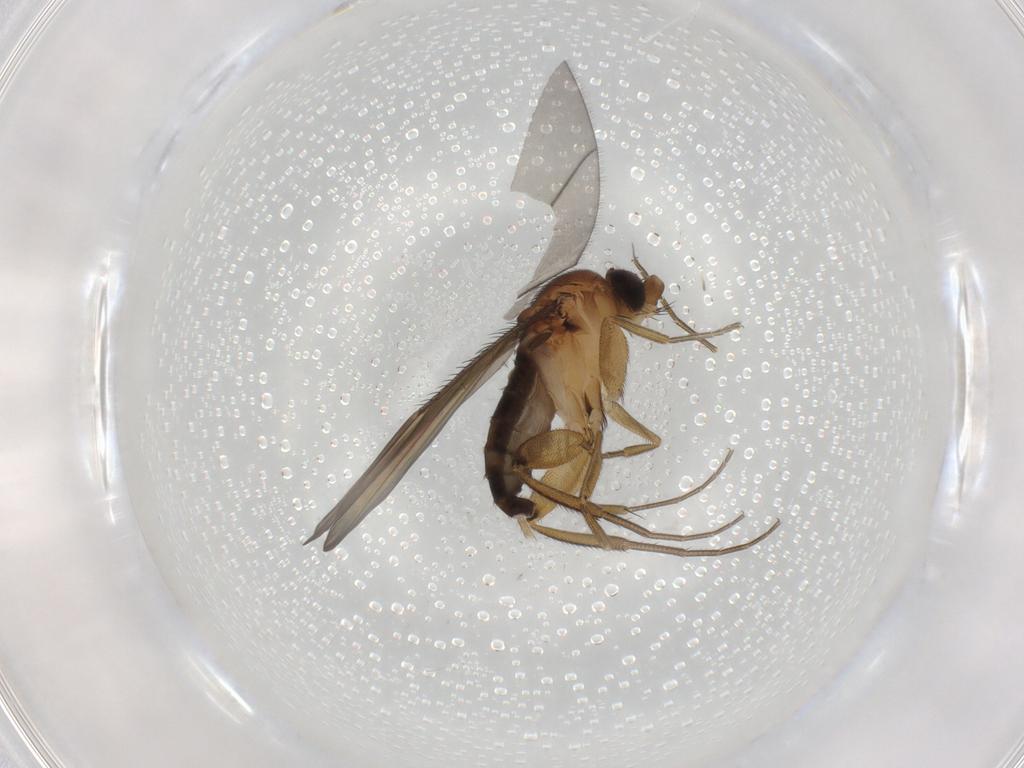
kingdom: Animalia
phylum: Arthropoda
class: Insecta
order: Diptera
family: Phoridae
